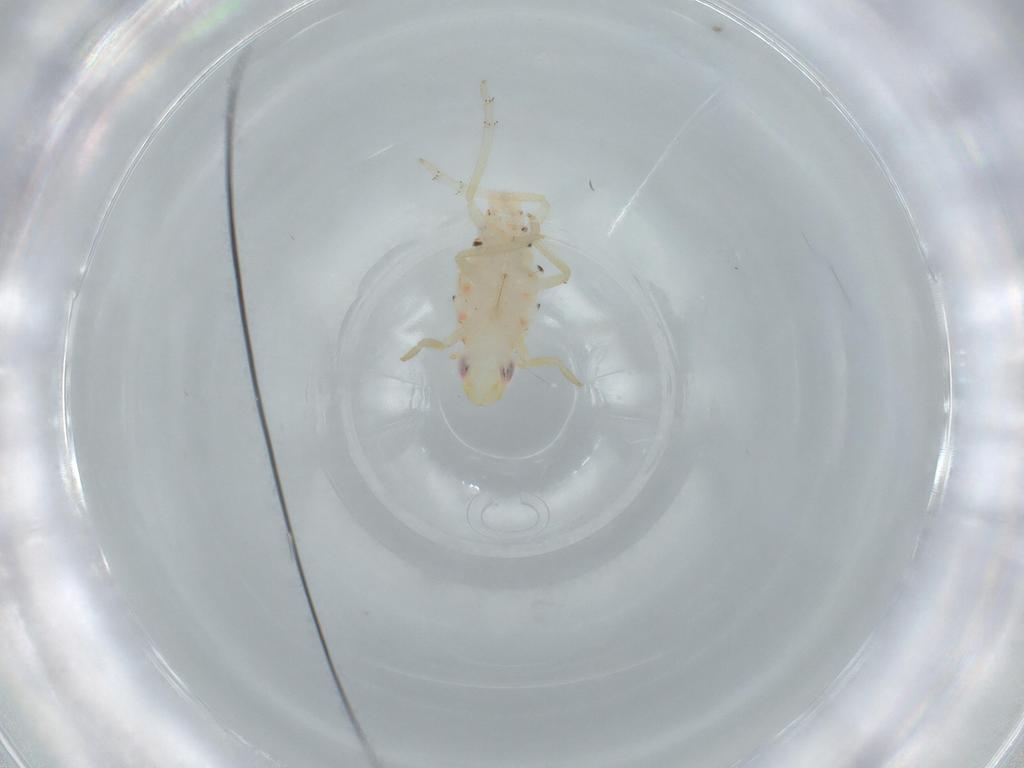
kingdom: Animalia
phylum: Arthropoda
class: Insecta
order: Hemiptera
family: Tropiduchidae
